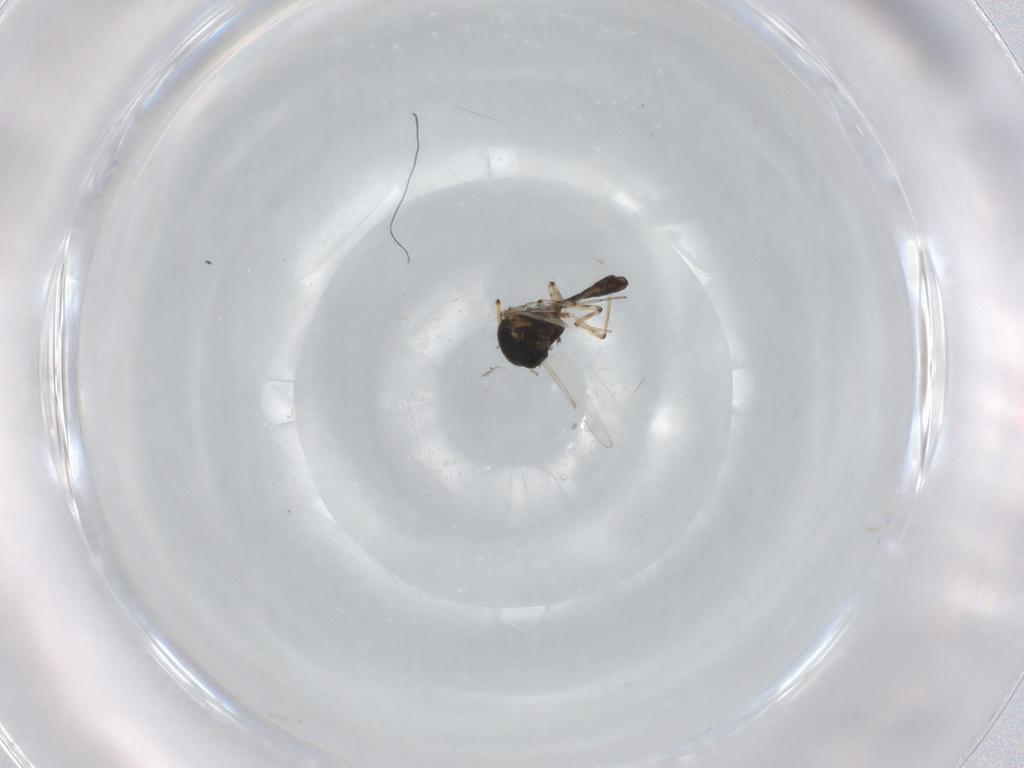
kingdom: Animalia
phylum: Arthropoda
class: Insecta
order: Diptera
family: Ceratopogonidae
